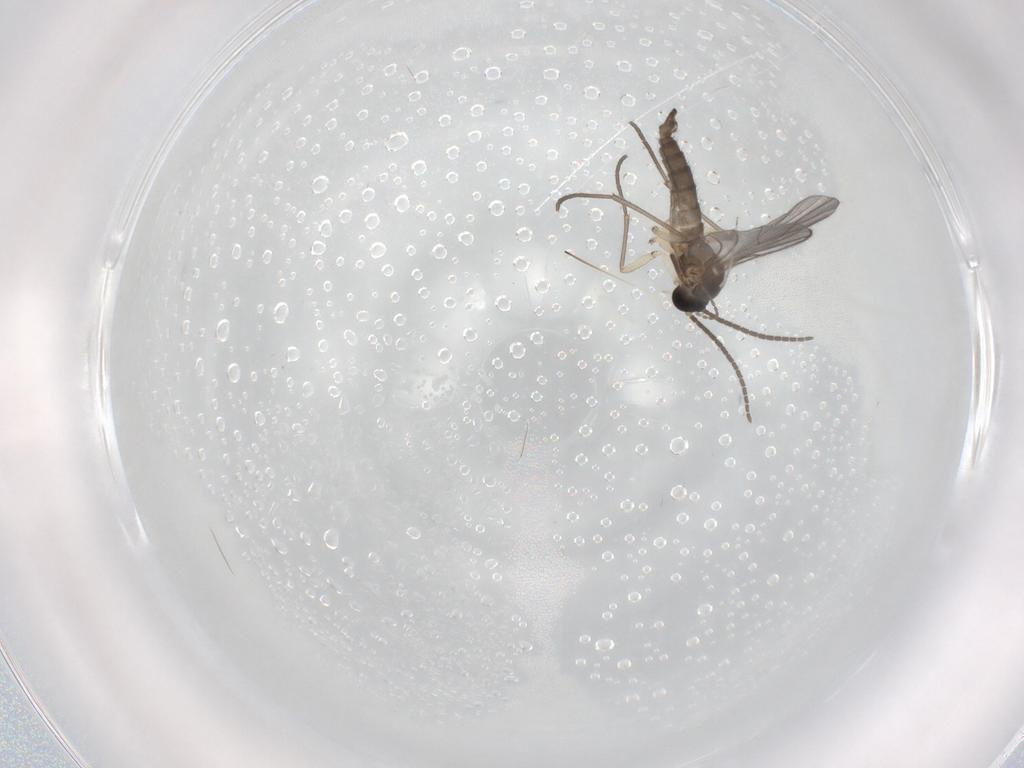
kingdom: Animalia
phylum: Arthropoda
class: Insecta
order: Diptera
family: Sciaridae
